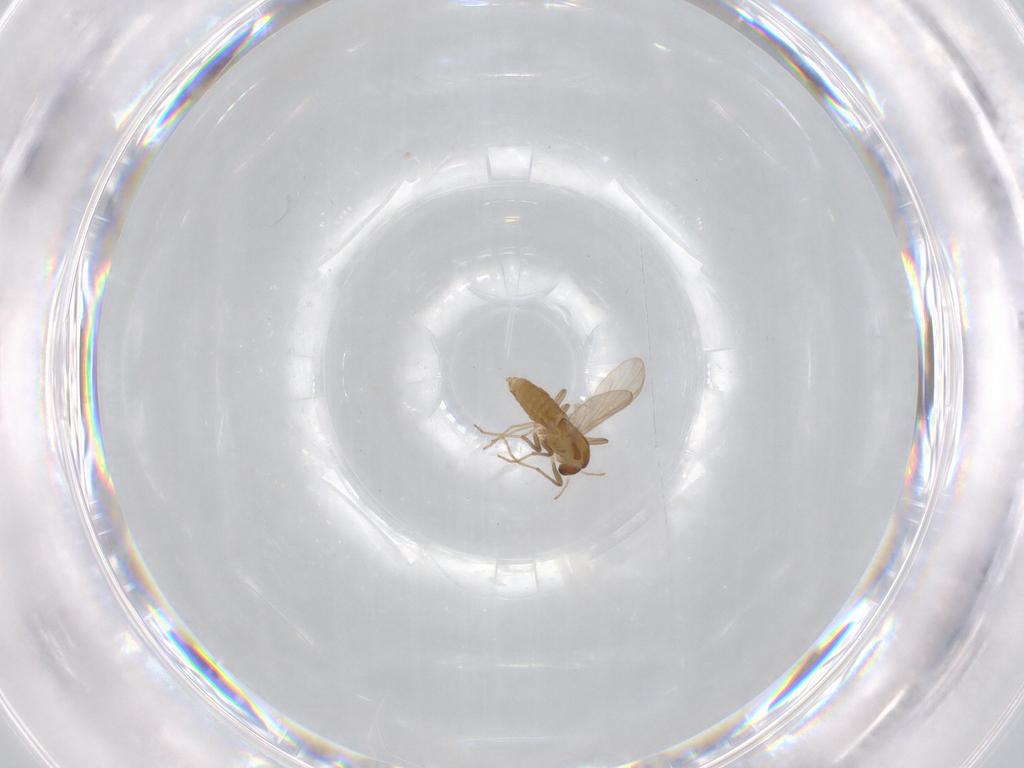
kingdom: Animalia
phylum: Arthropoda
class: Insecta
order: Diptera
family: Chironomidae
